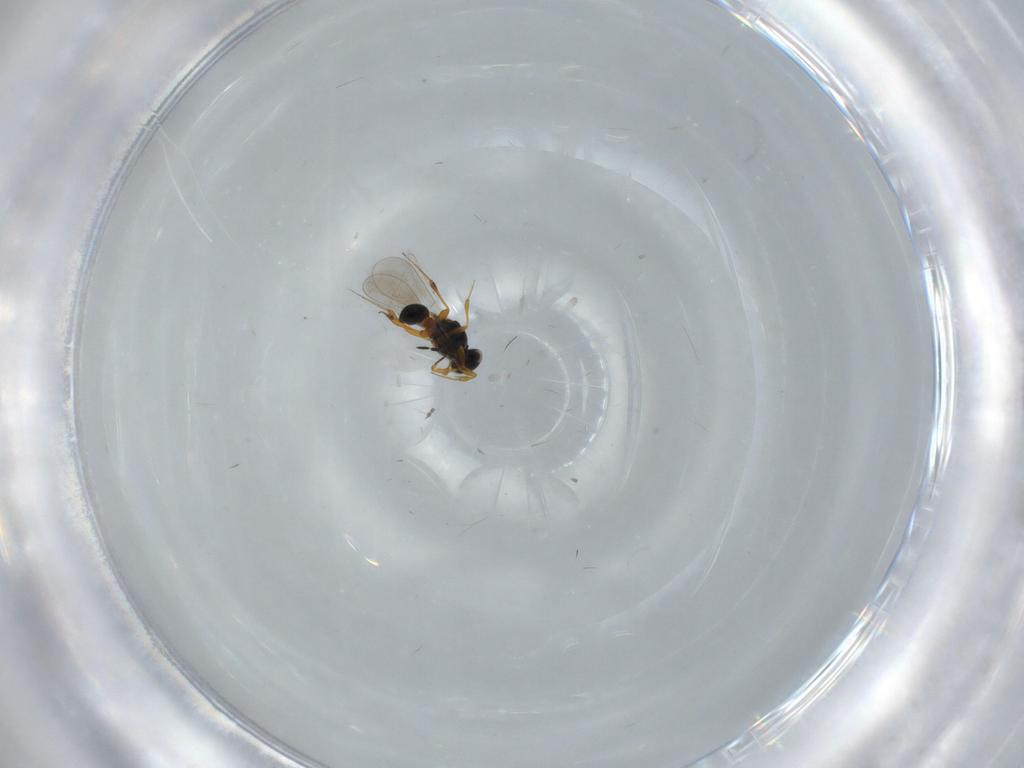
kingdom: Animalia
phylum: Arthropoda
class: Insecta
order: Hymenoptera
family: Platygastridae
